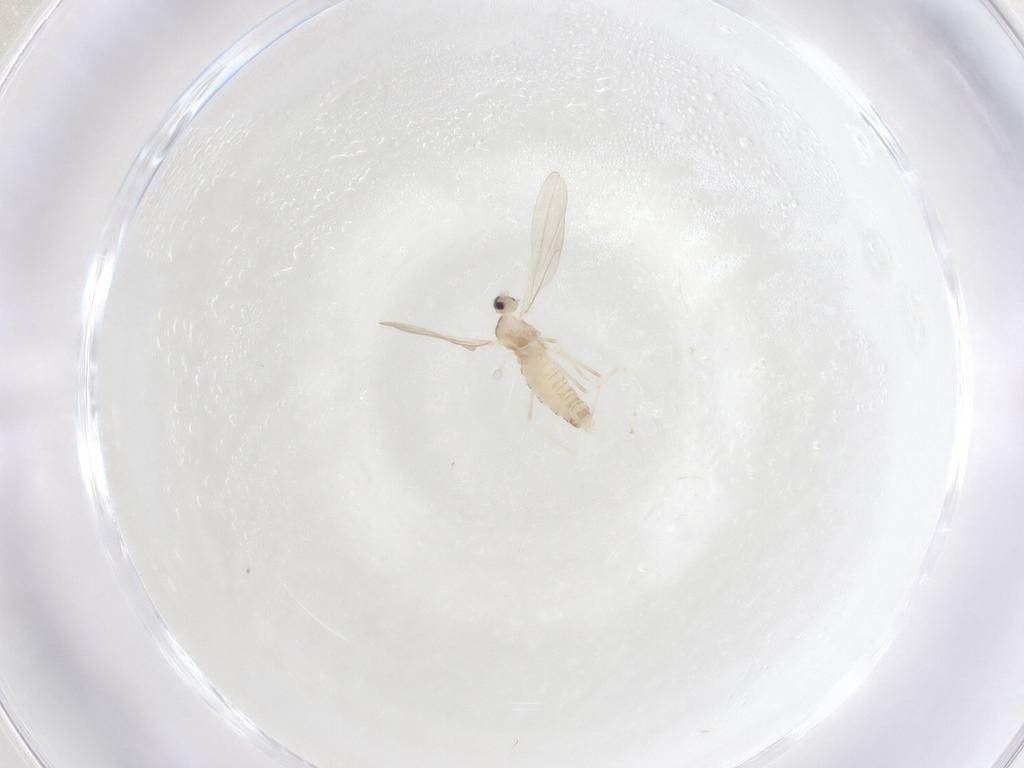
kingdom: Animalia
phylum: Arthropoda
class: Insecta
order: Diptera
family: Cecidomyiidae
